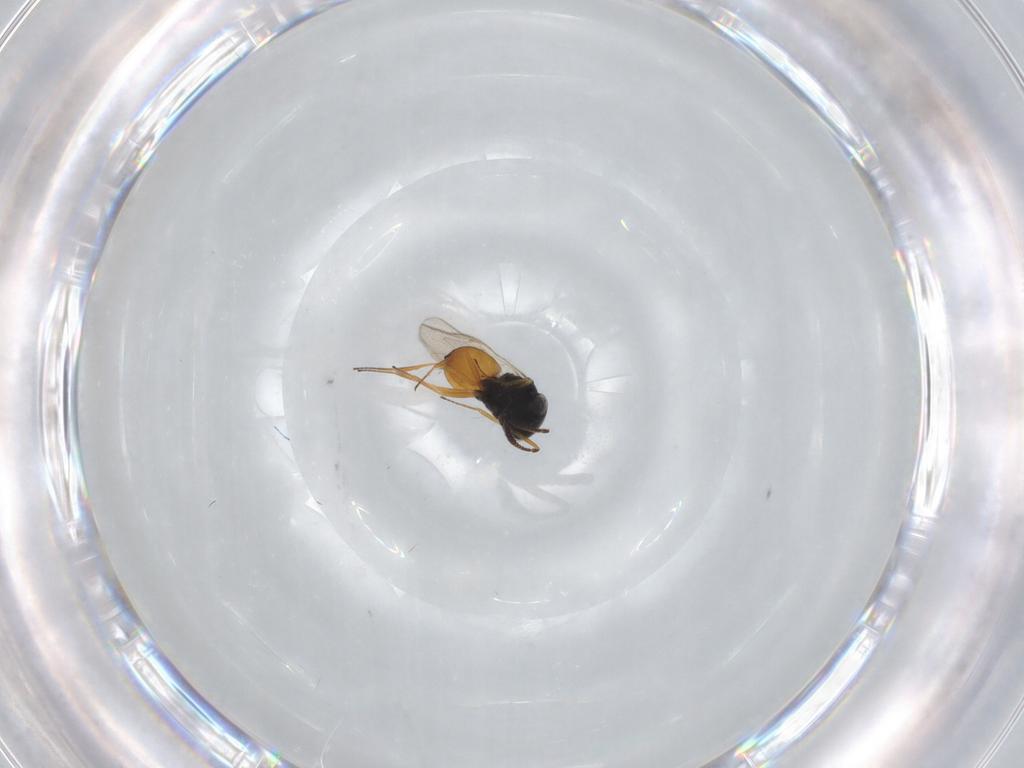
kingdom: Animalia
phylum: Arthropoda
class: Insecta
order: Hymenoptera
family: Scelionidae
